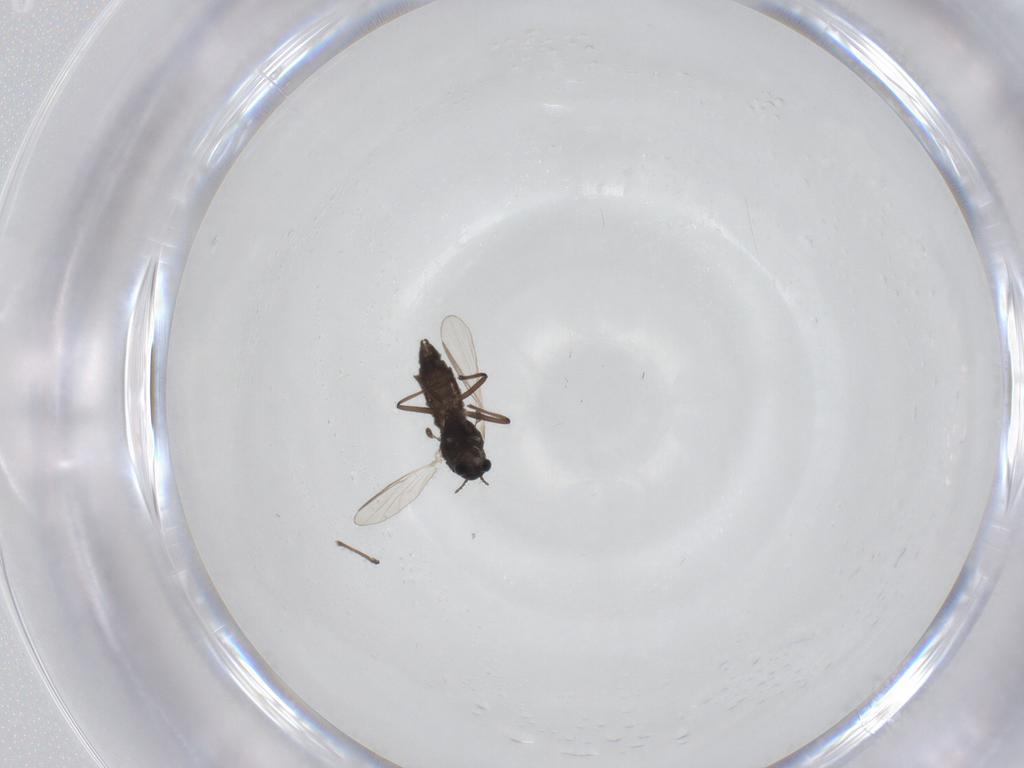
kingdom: Animalia
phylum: Arthropoda
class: Insecta
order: Diptera
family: Chironomidae
